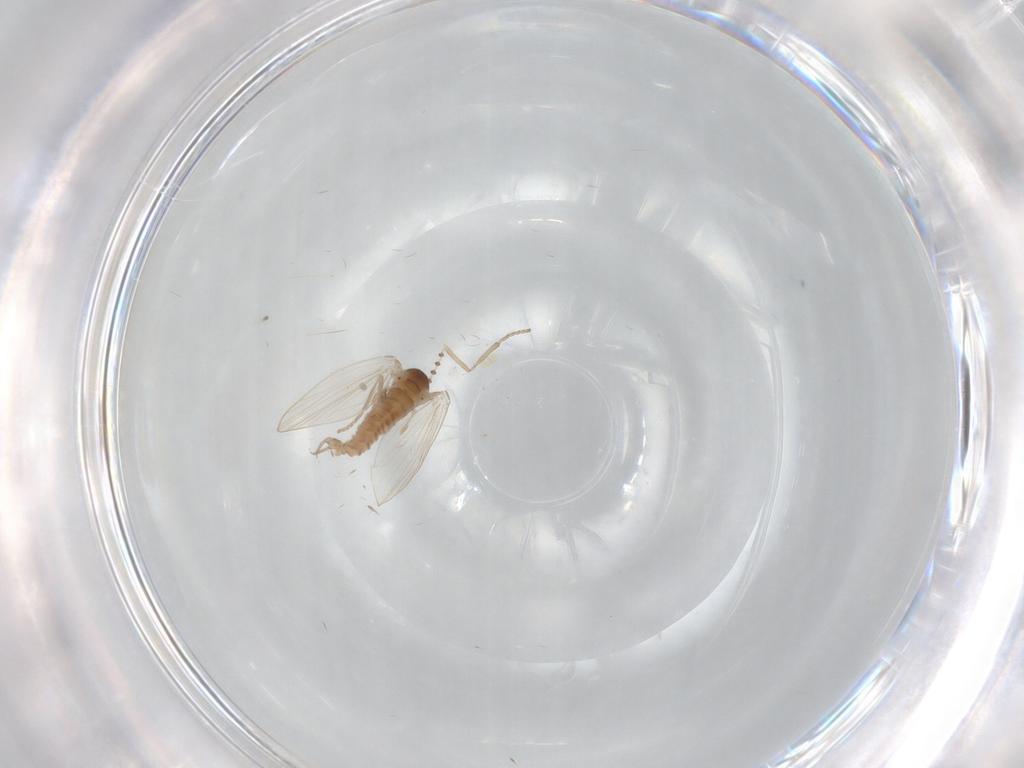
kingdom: Animalia
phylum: Arthropoda
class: Insecta
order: Diptera
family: Psychodidae
